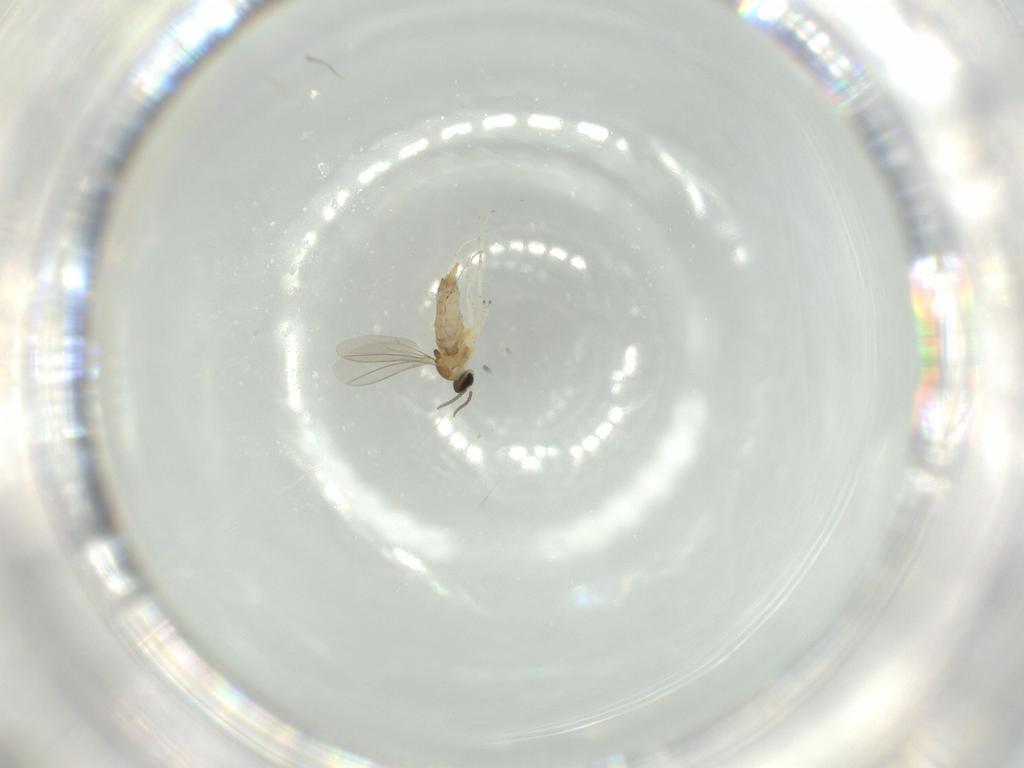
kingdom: Animalia
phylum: Arthropoda
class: Insecta
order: Diptera
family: Cecidomyiidae
